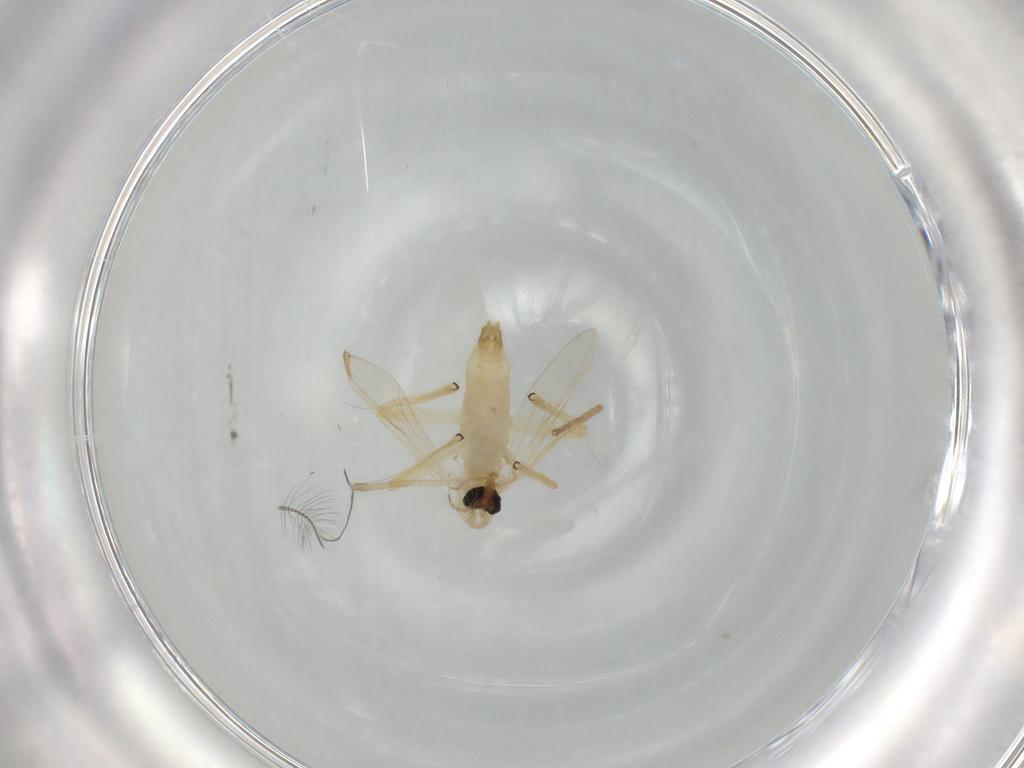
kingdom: Animalia
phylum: Arthropoda
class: Insecta
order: Diptera
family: Chironomidae
